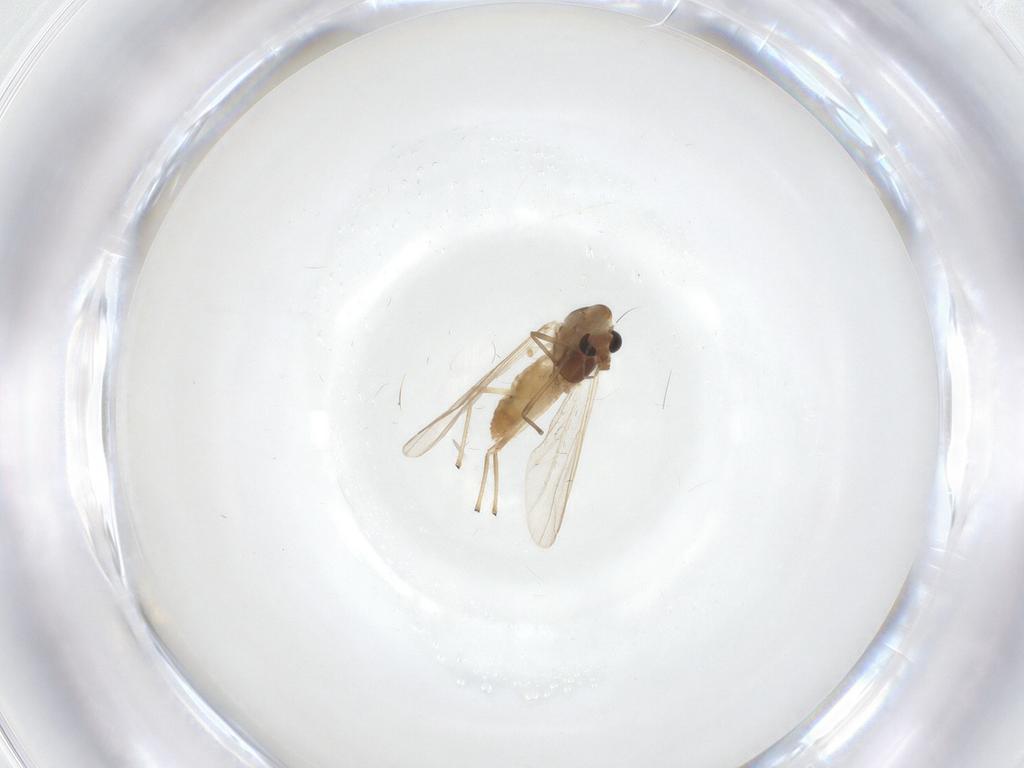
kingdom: Animalia
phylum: Arthropoda
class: Insecta
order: Diptera
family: Chironomidae
